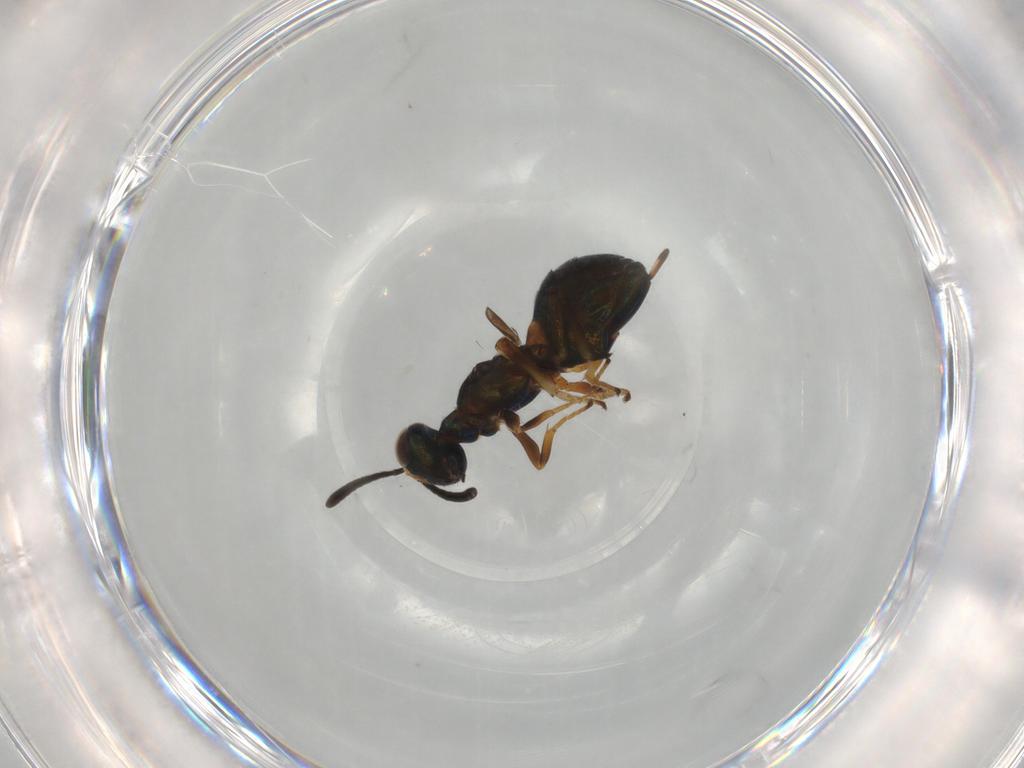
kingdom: Animalia
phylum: Arthropoda
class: Insecta
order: Hymenoptera
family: Eupelmidae
